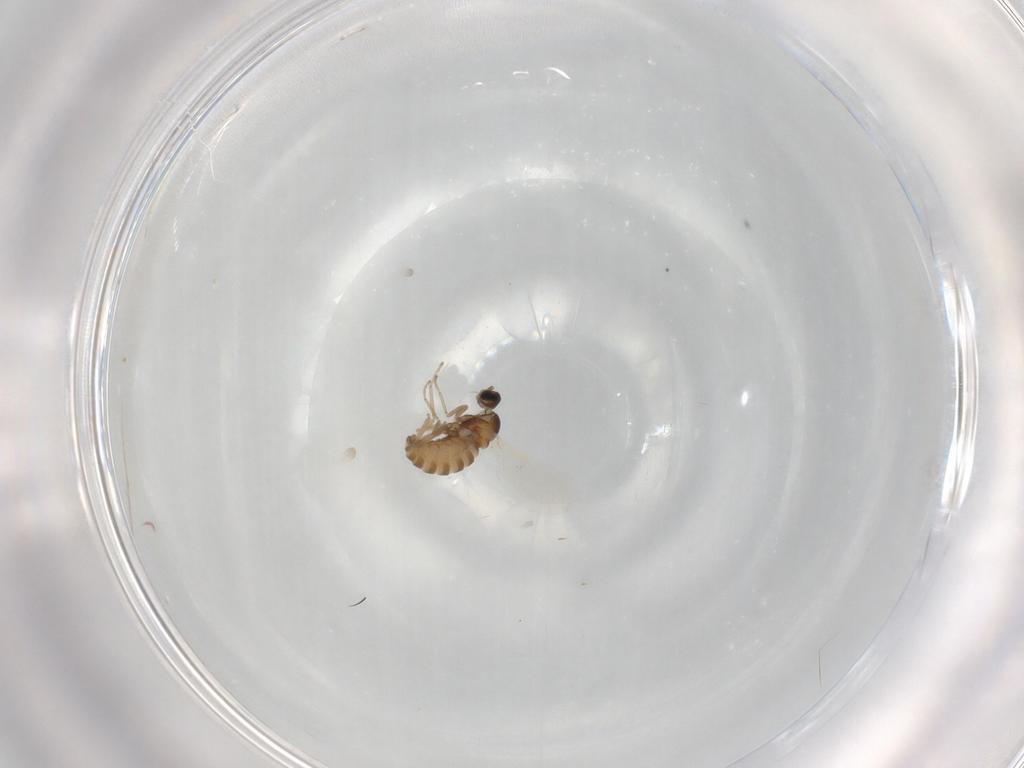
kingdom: Animalia
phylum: Arthropoda
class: Insecta
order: Diptera
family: Cecidomyiidae
